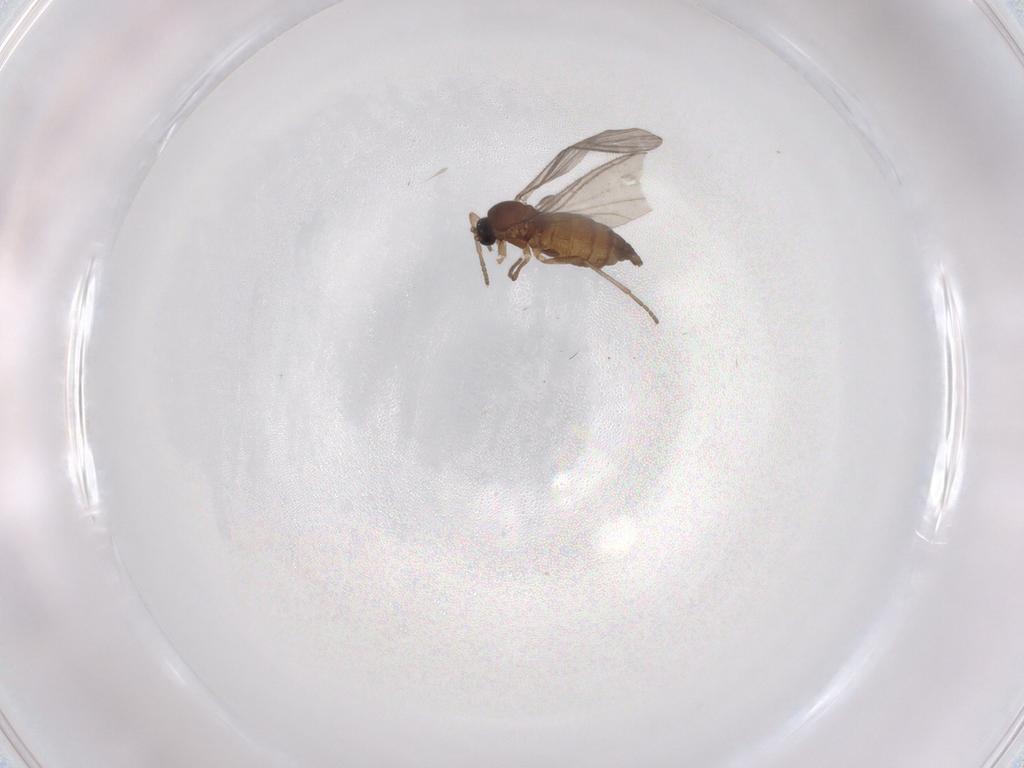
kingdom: Animalia
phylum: Arthropoda
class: Insecta
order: Diptera
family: Sciaridae
